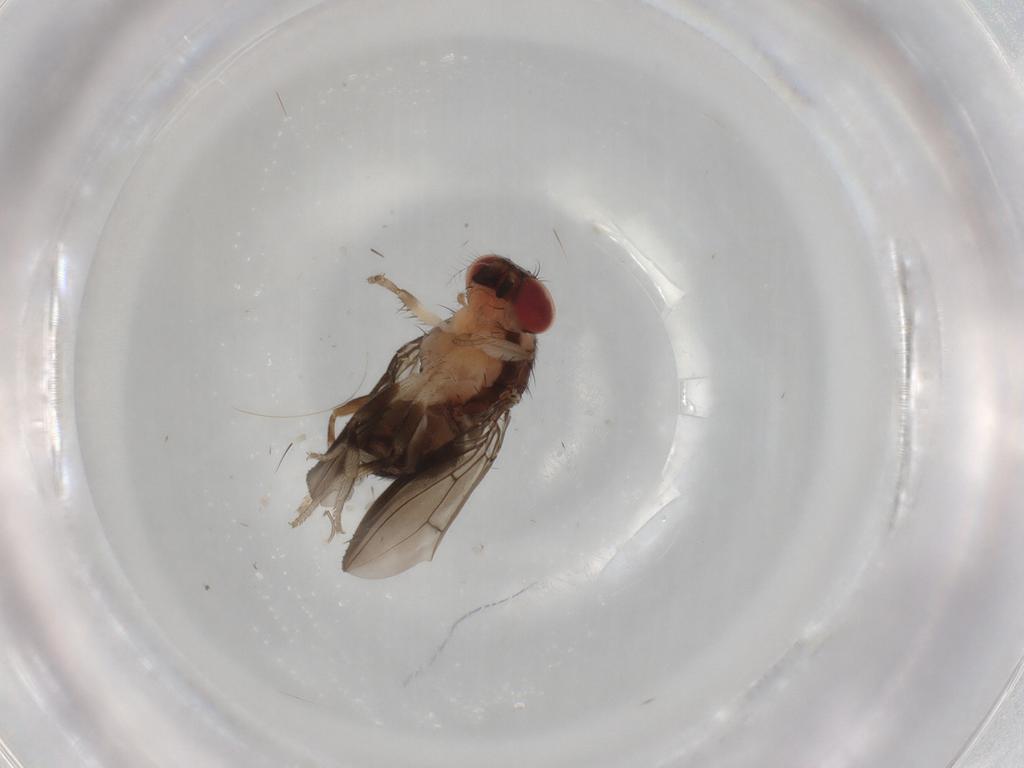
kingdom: Animalia
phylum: Arthropoda
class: Insecta
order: Diptera
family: Drosophilidae
